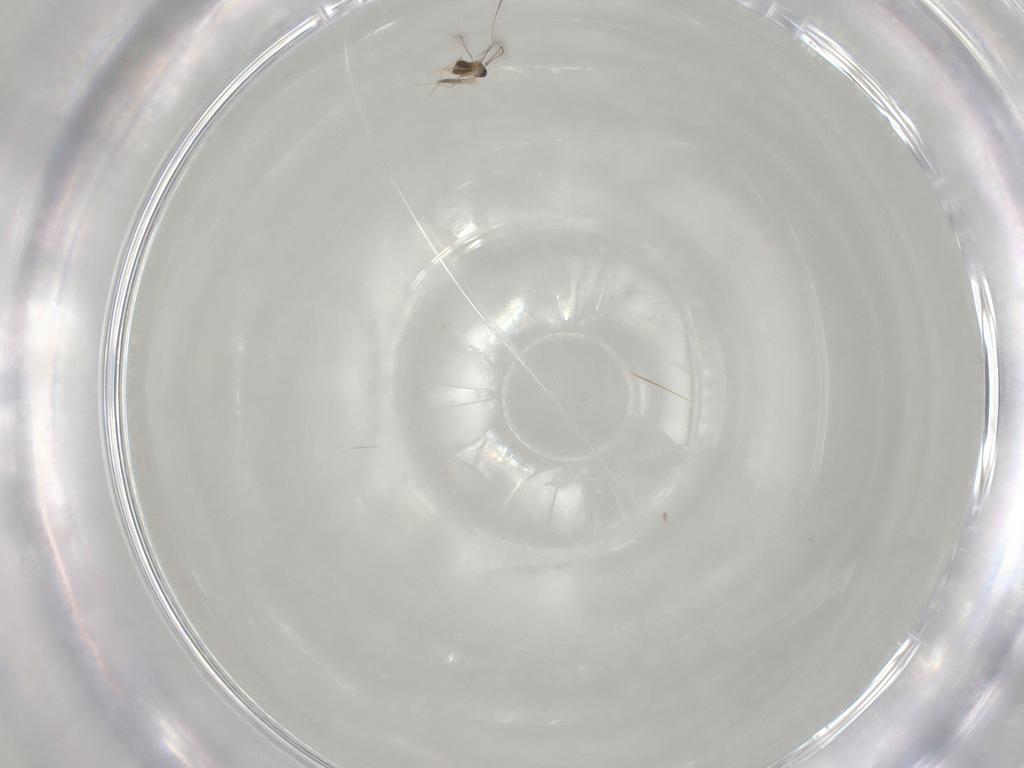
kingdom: Animalia
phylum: Arthropoda
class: Insecta
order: Hymenoptera
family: Mymaridae
